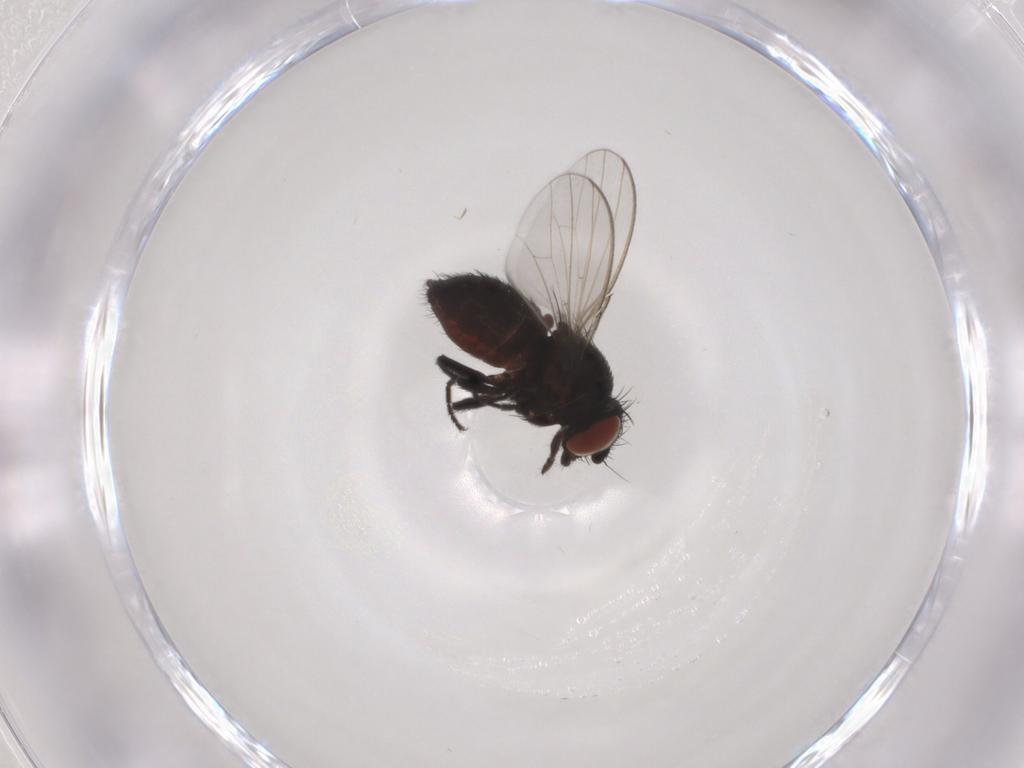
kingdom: Animalia
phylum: Arthropoda
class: Insecta
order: Diptera
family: Milichiidae
